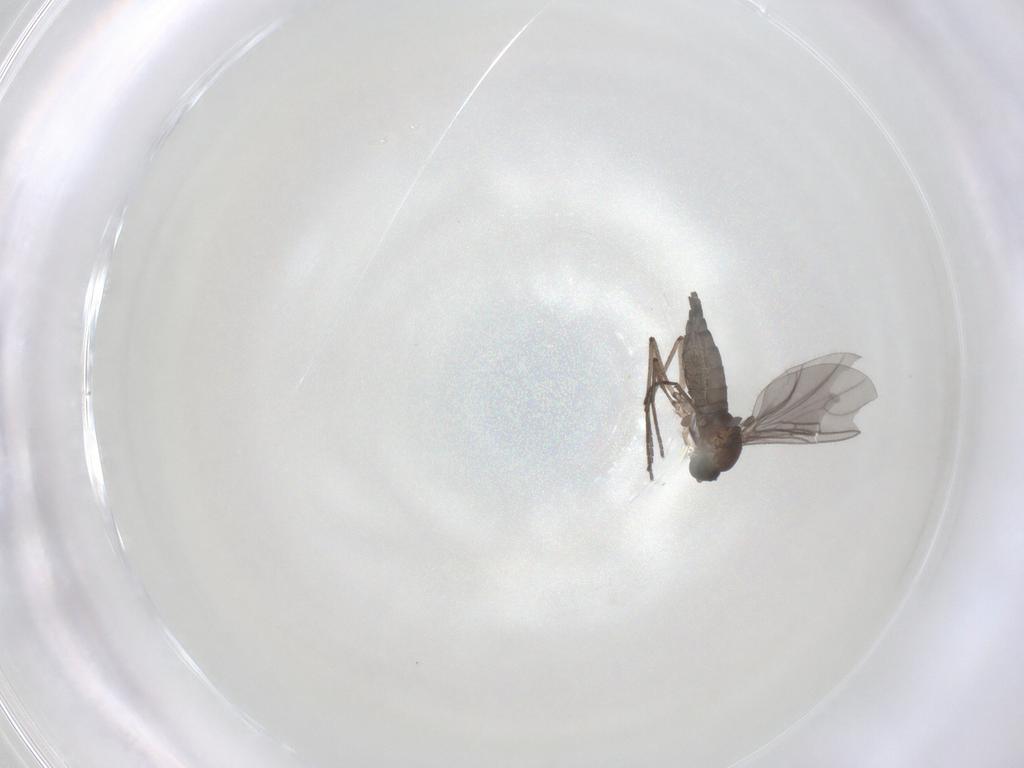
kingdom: Animalia
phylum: Arthropoda
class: Insecta
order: Diptera
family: Sciaridae
